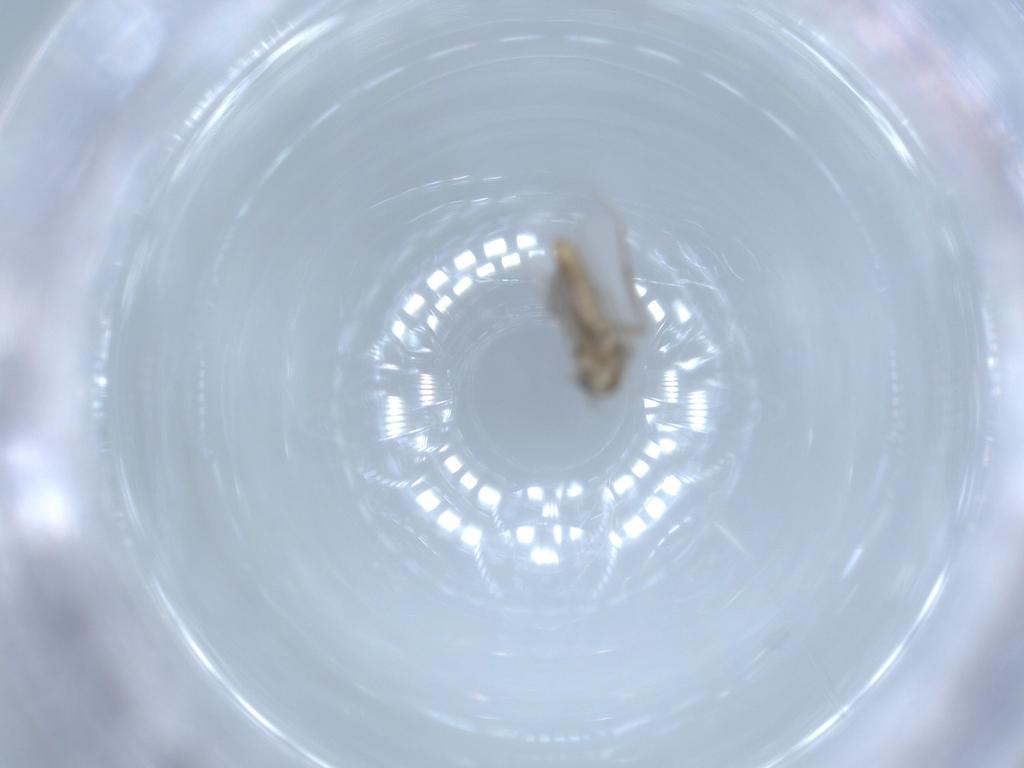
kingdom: Animalia
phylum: Arthropoda
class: Insecta
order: Diptera
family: Chironomidae
